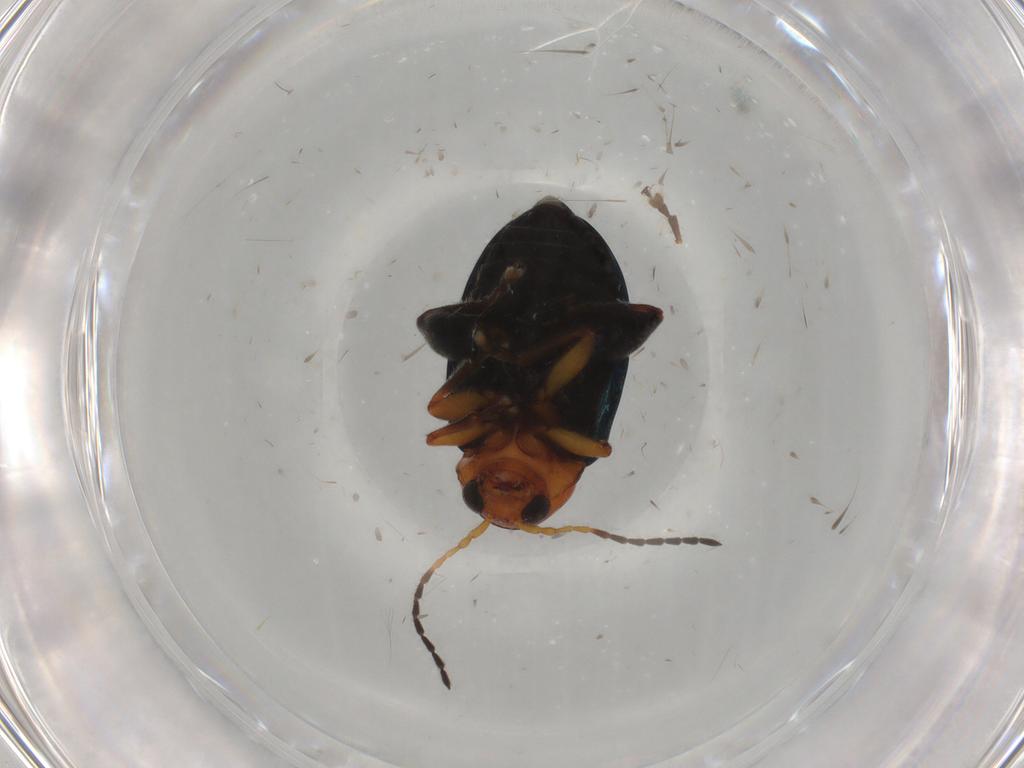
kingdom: Animalia
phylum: Arthropoda
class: Insecta
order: Coleoptera
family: Chrysomelidae
